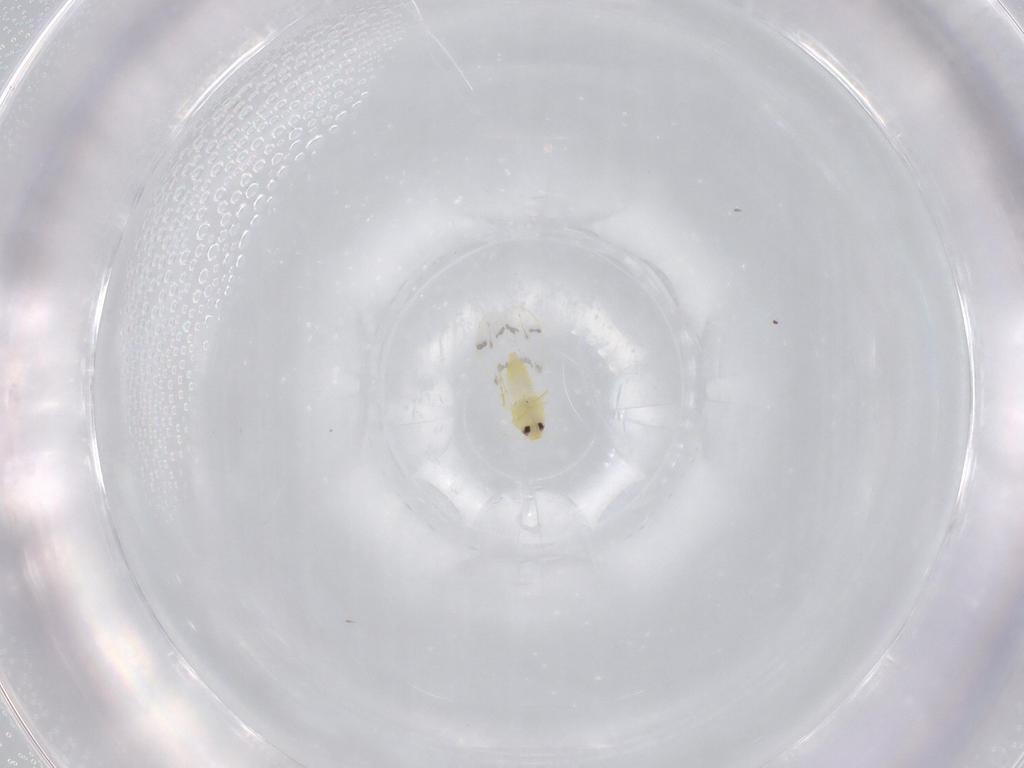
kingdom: Animalia
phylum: Arthropoda
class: Insecta
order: Hemiptera
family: Aleyrodidae
